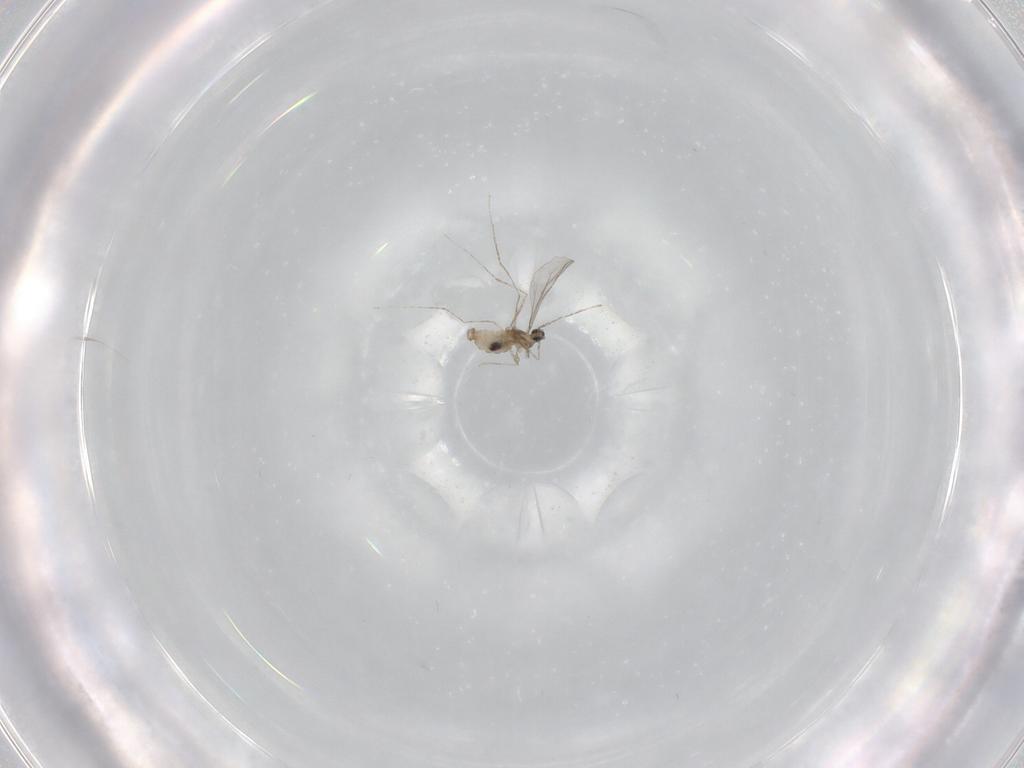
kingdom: Animalia
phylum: Arthropoda
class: Insecta
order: Diptera
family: Cecidomyiidae
